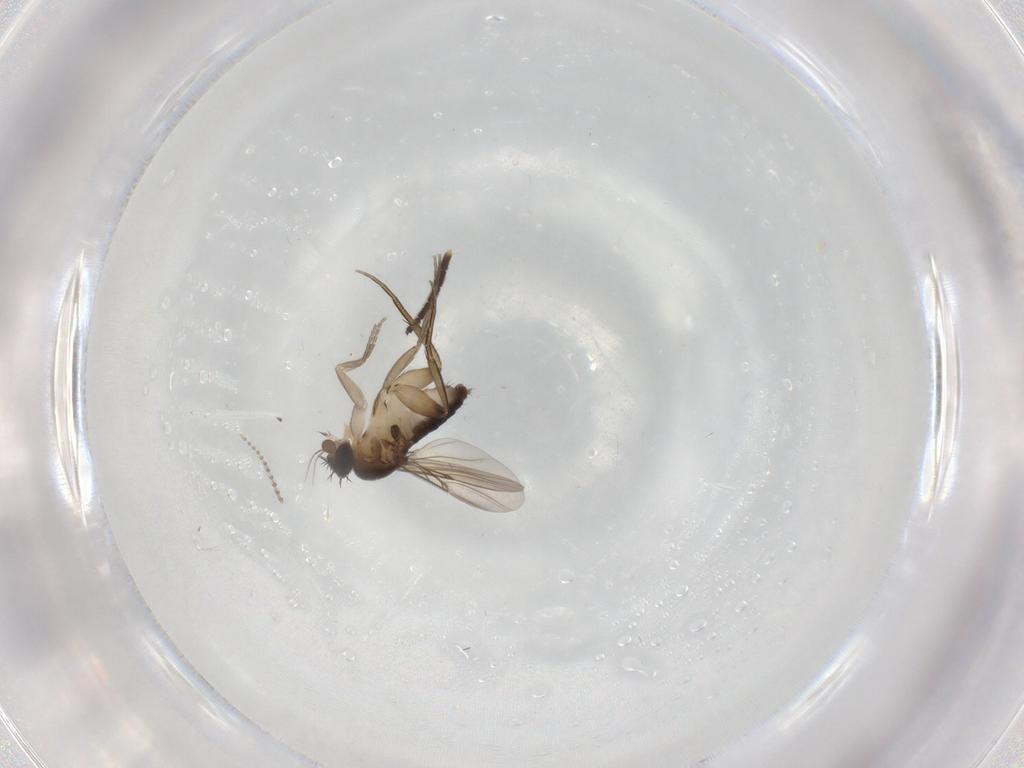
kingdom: Animalia
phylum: Arthropoda
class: Insecta
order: Diptera
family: Phoridae
